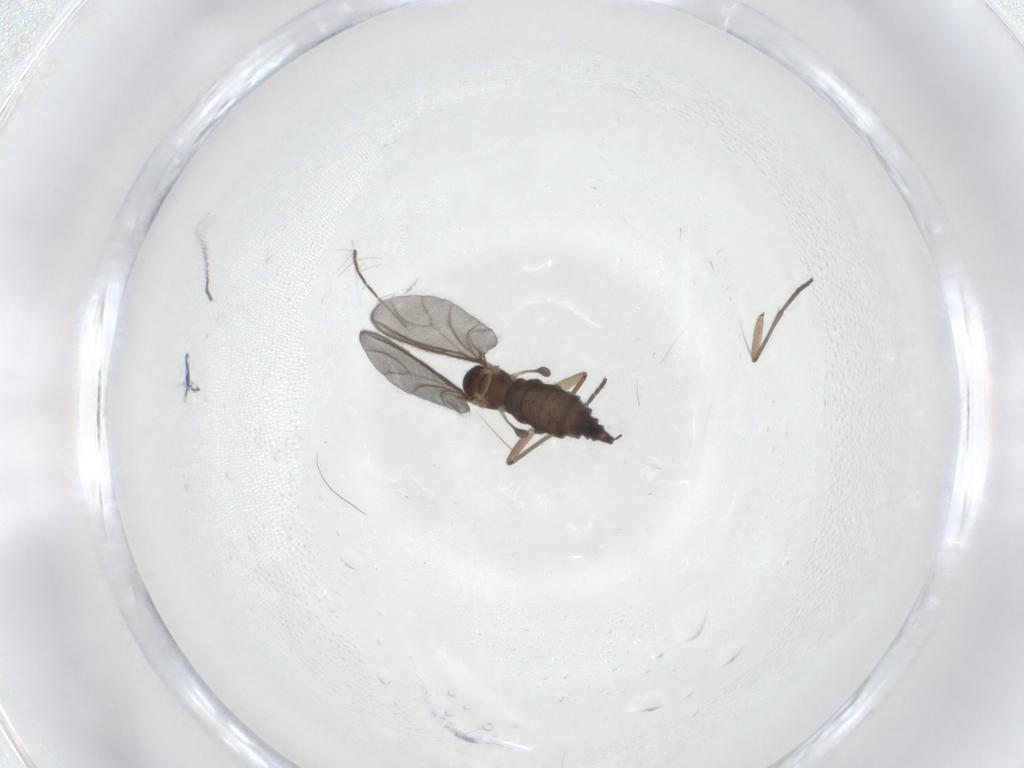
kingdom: Animalia
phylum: Arthropoda
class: Insecta
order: Diptera
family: Culicidae
